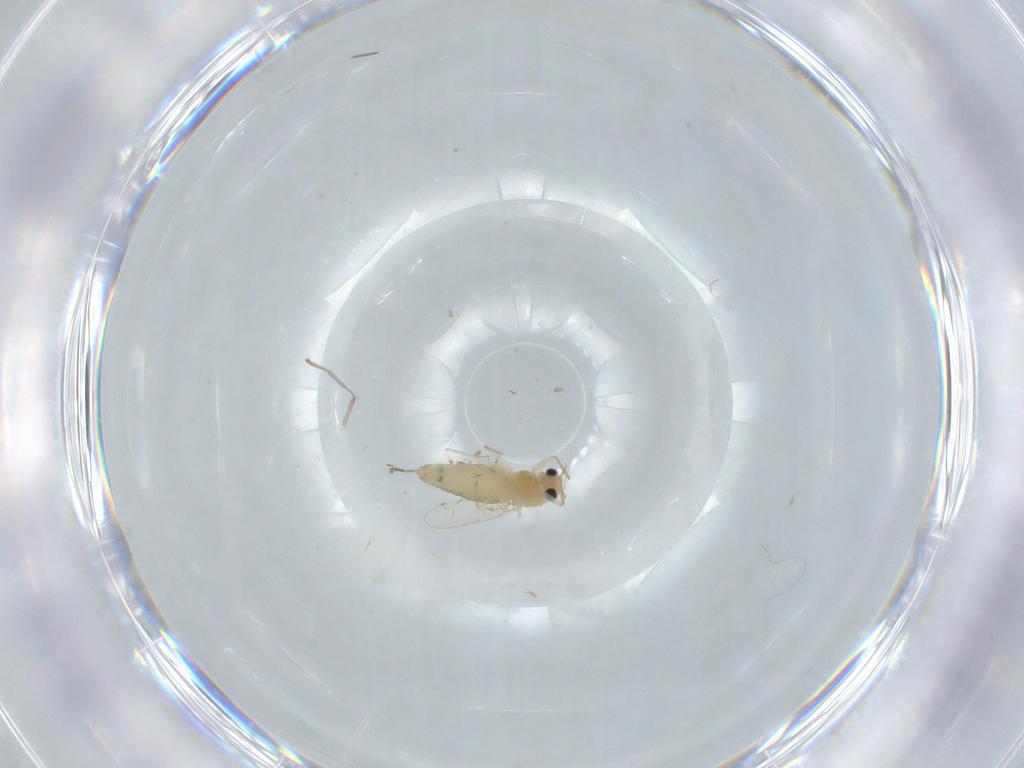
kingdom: Animalia
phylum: Arthropoda
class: Insecta
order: Diptera
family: Chironomidae
